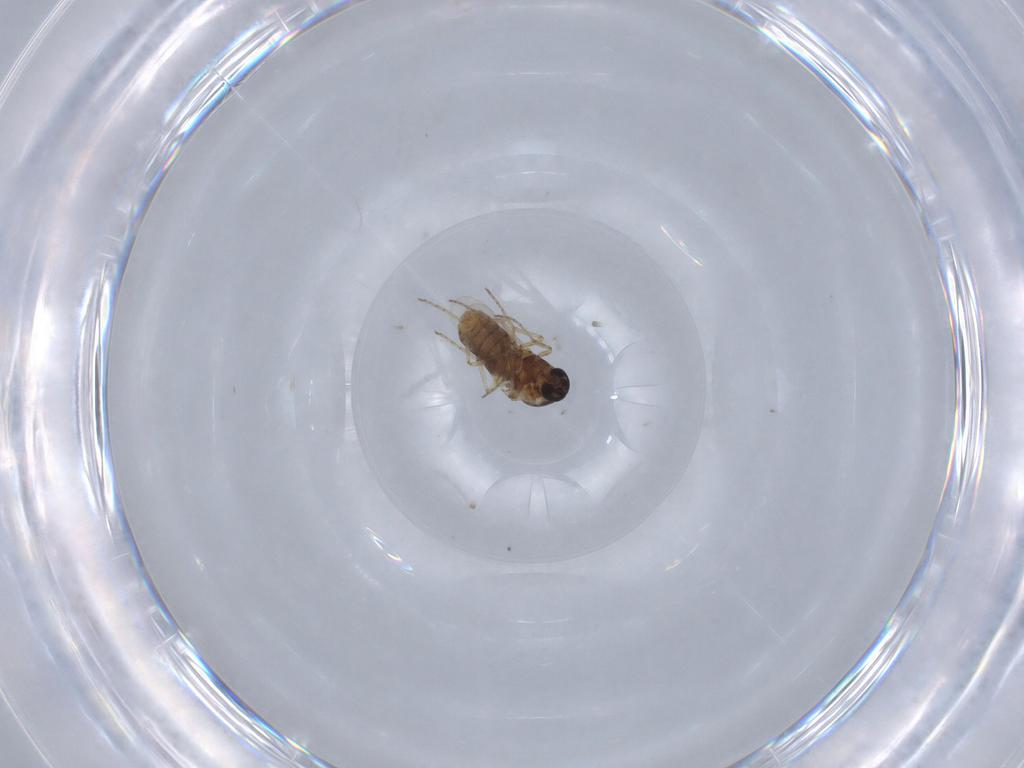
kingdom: Animalia
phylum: Arthropoda
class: Insecta
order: Diptera
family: Ceratopogonidae
